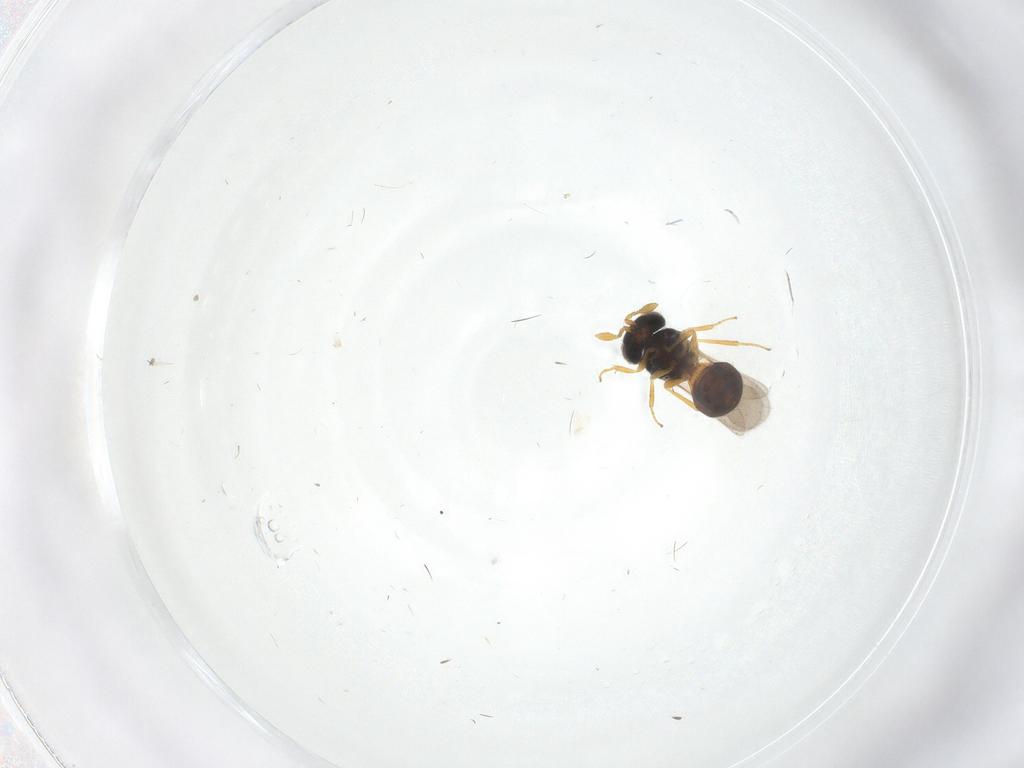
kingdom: Animalia
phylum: Arthropoda
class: Insecta
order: Hymenoptera
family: Scelionidae
